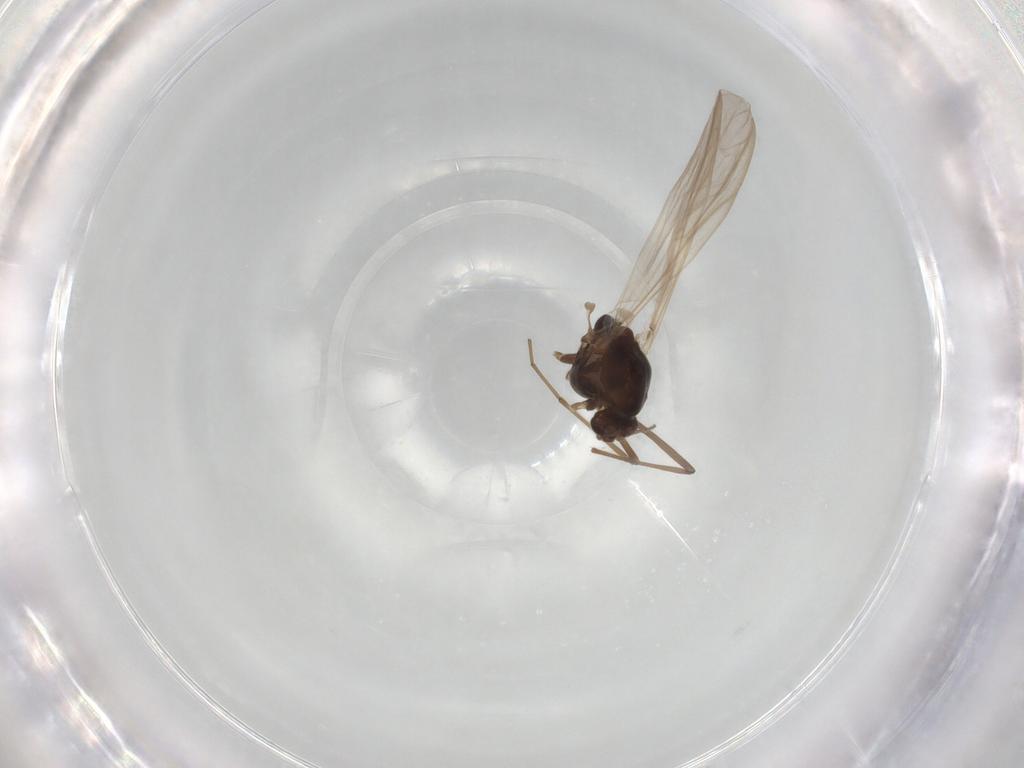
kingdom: Animalia
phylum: Arthropoda
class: Insecta
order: Diptera
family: Chironomidae
